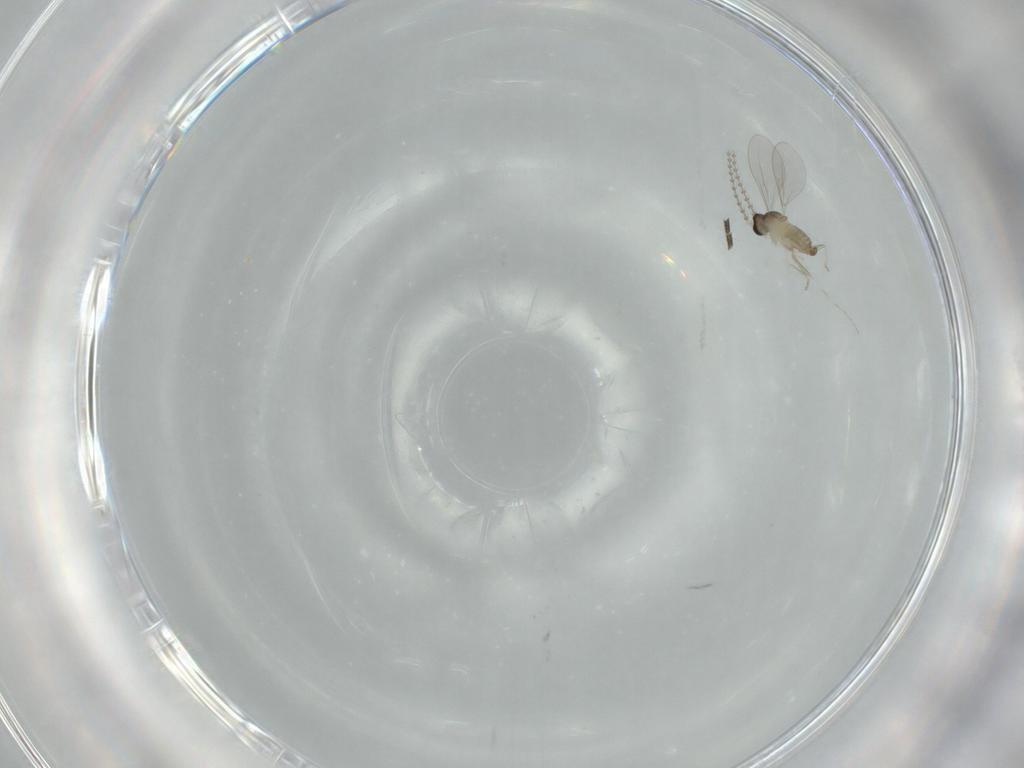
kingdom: Animalia
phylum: Arthropoda
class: Insecta
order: Diptera
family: Cecidomyiidae
